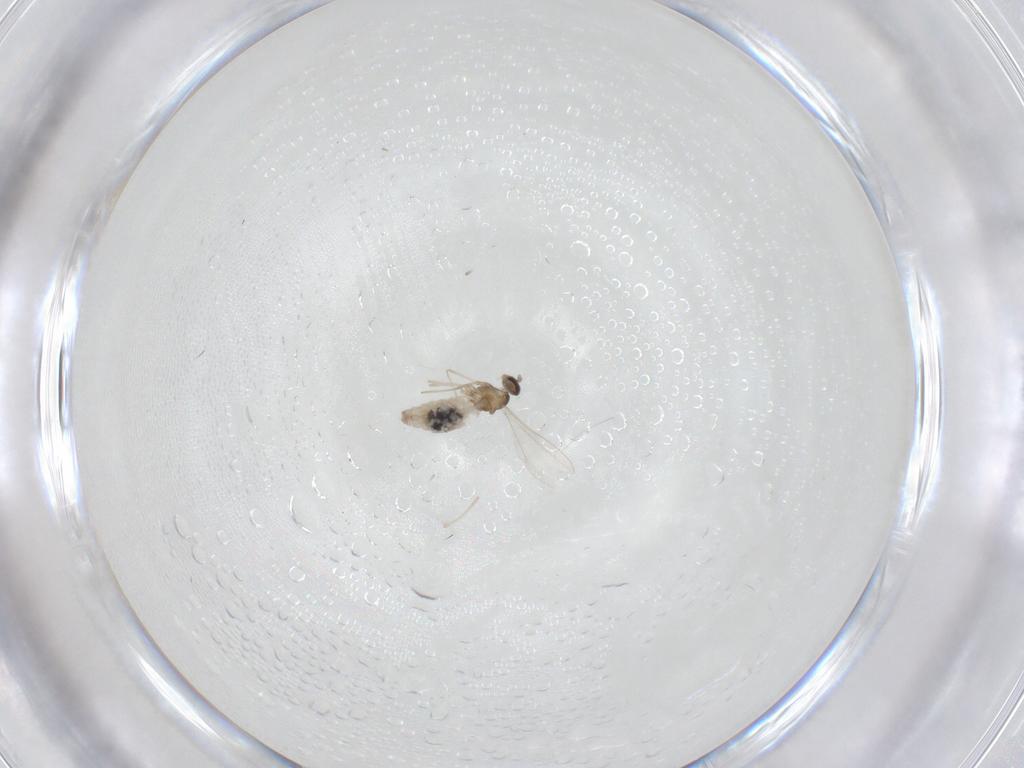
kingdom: Animalia
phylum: Arthropoda
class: Insecta
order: Diptera
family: Cecidomyiidae
